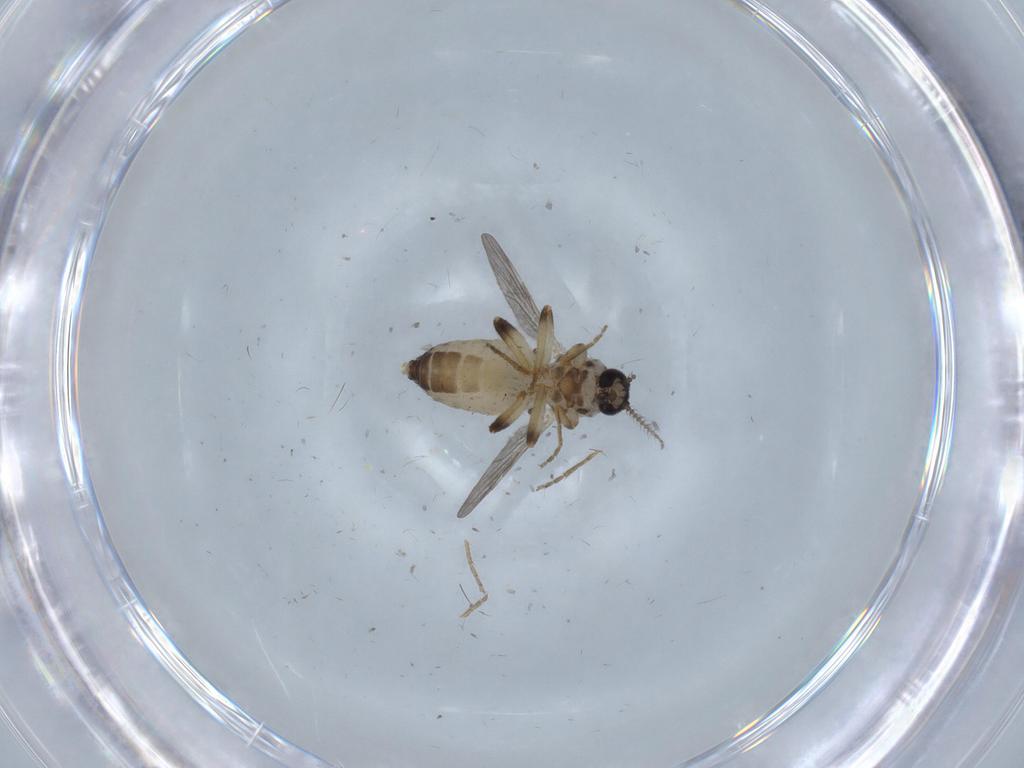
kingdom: Animalia
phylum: Arthropoda
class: Insecta
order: Diptera
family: Ceratopogonidae
